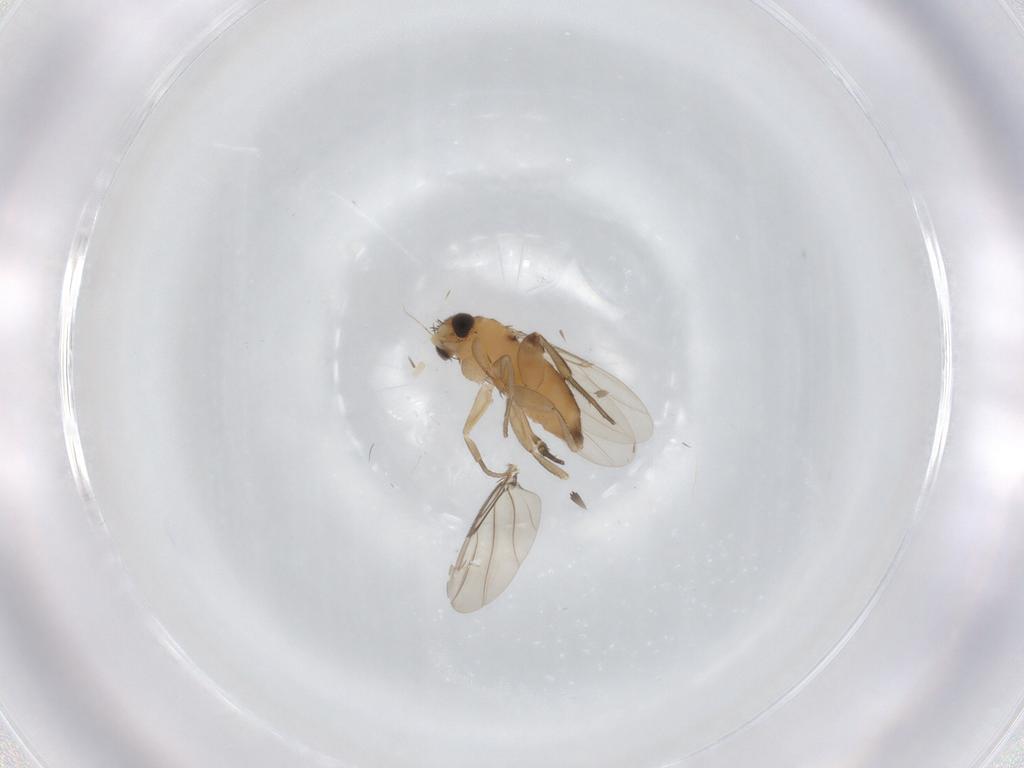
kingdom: Animalia
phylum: Arthropoda
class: Insecta
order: Diptera
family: Phoridae
